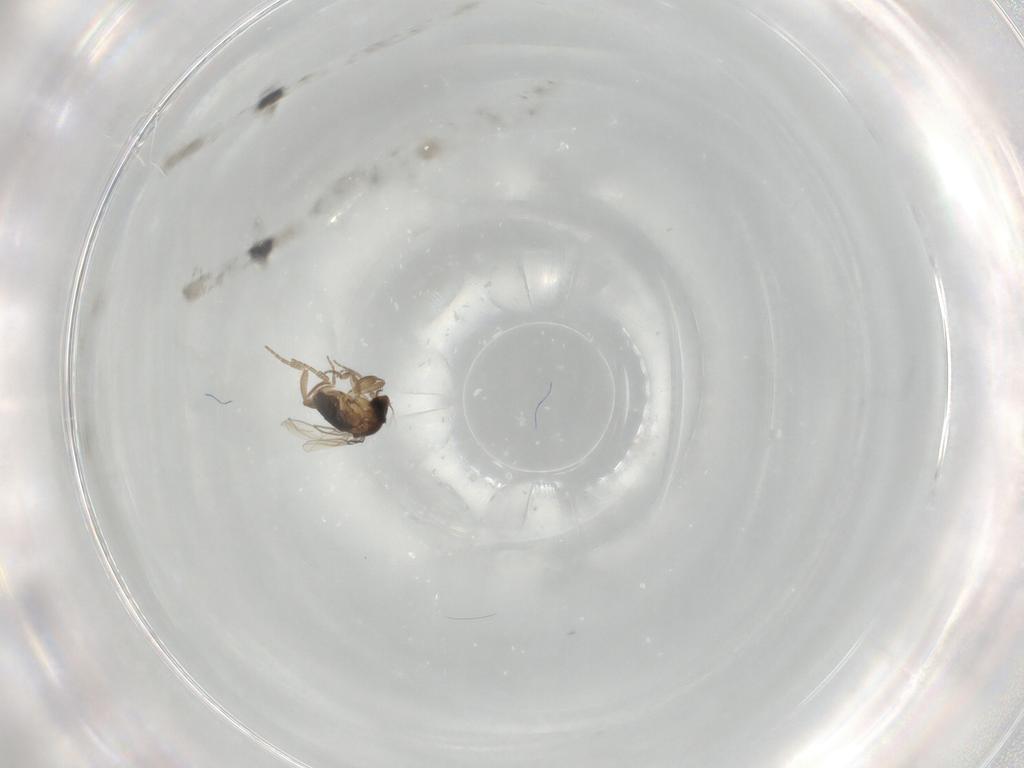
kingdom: Animalia
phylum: Arthropoda
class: Insecta
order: Diptera
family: Phoridae
